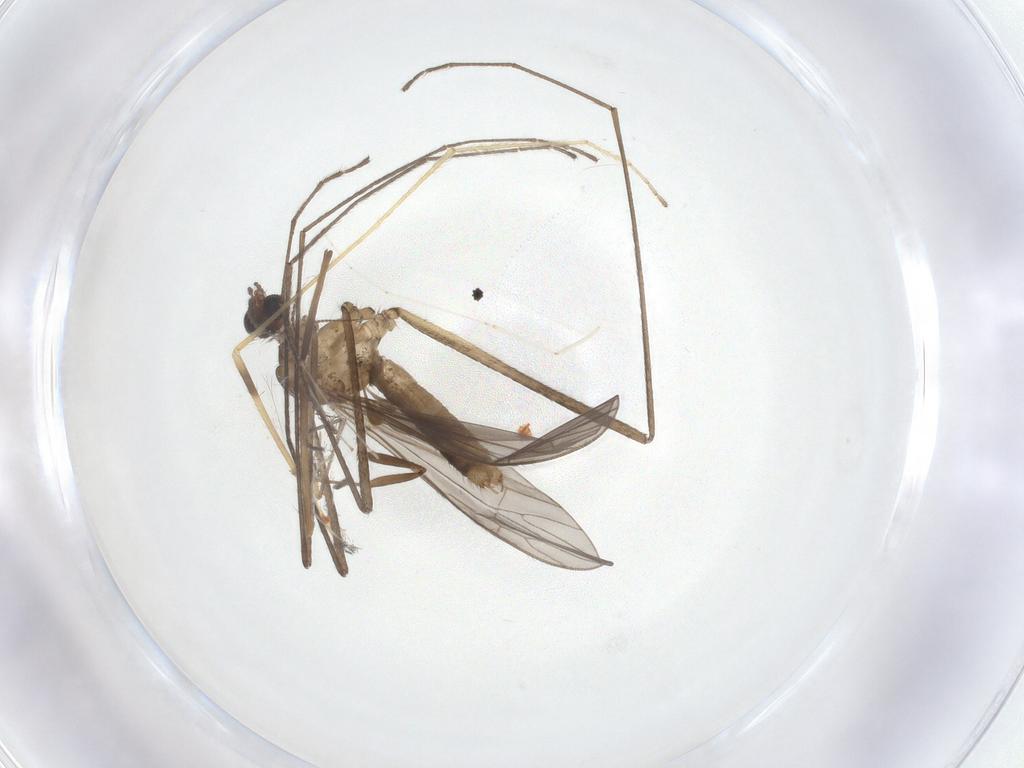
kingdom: Animalia
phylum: Arthropoda
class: Insecta
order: Diptera
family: Limoniidae
